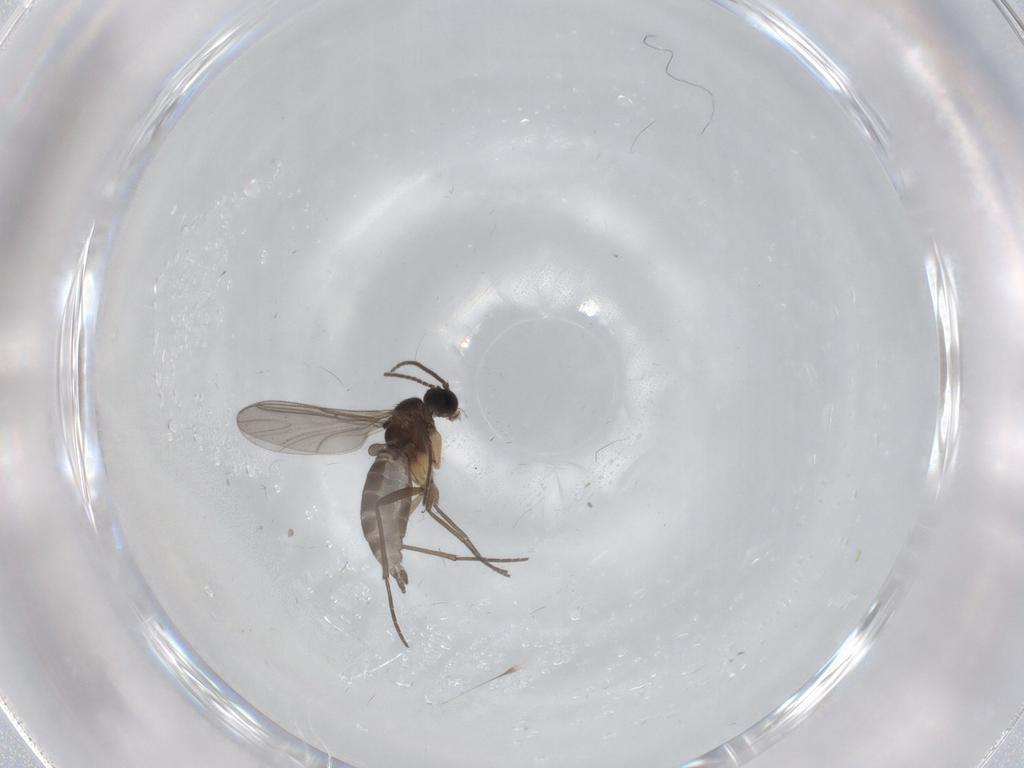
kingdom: Animalia
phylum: Arthropoda
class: Insecta
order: Diptera
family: Sciaridae
